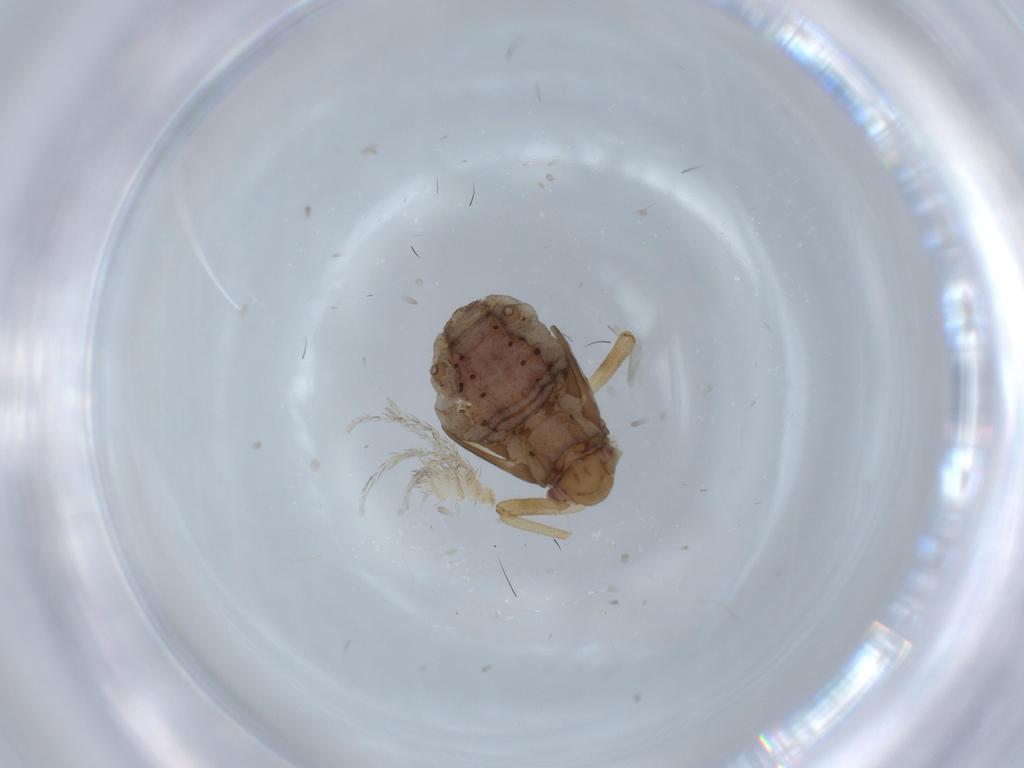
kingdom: Animalia
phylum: Arthropoda
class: Insecta
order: Hemiptera
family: Aphididae
